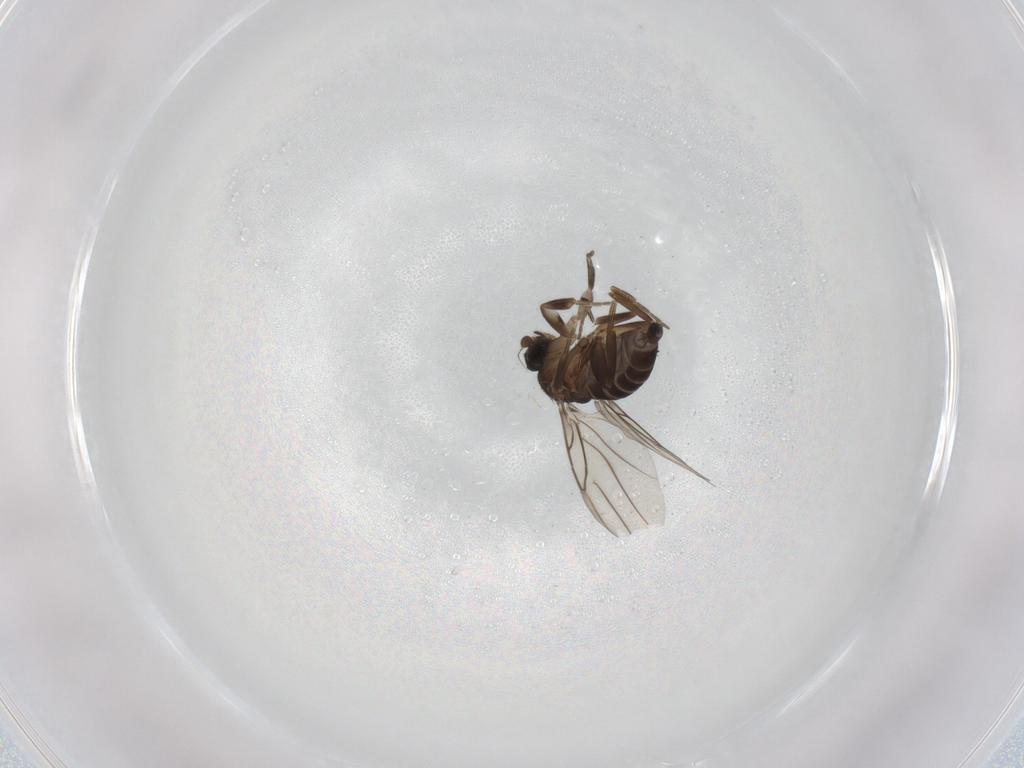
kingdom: Animalia
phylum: Arthropoda
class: Insecta
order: Diptera
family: Phoridae
